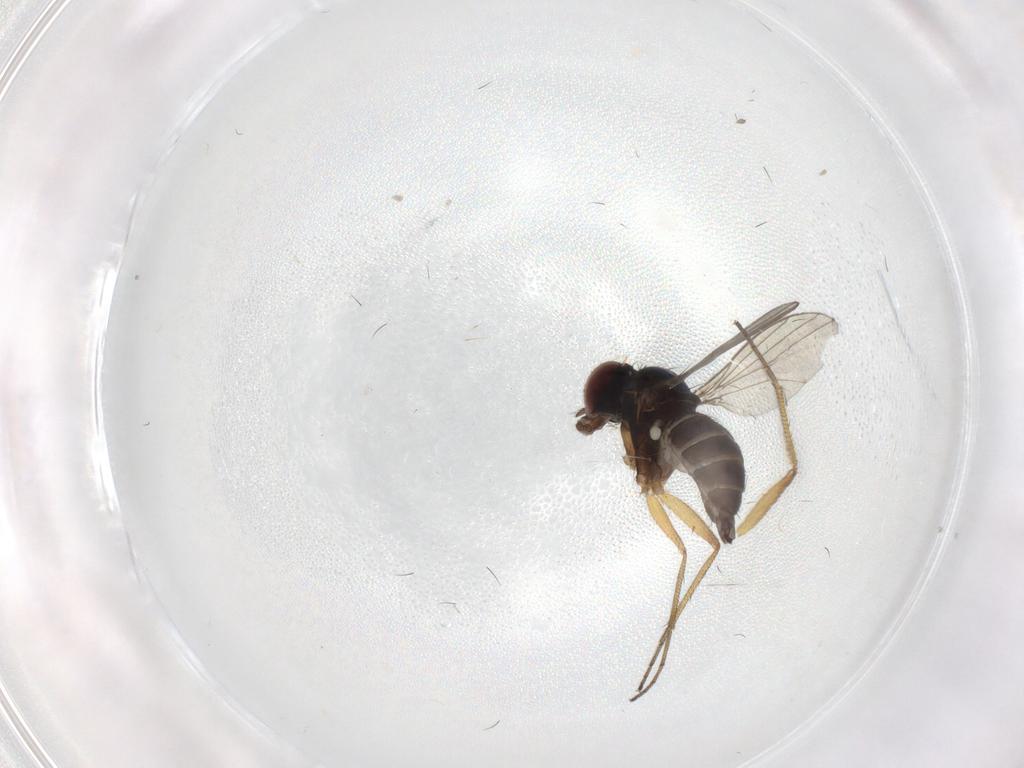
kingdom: Animalia
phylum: Arthropoda
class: Insecta
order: Diptera
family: Dolichopodidae
